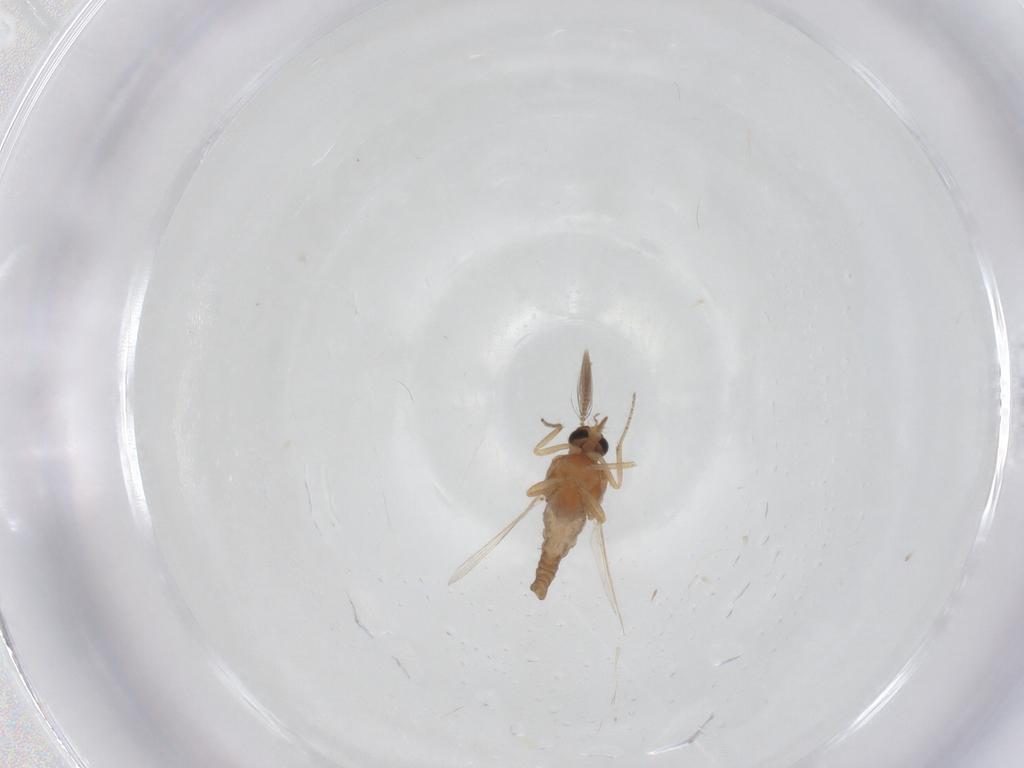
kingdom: Animalia
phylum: Arthropoda
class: Insecta
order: Diptera
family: Ceratopogonidae
